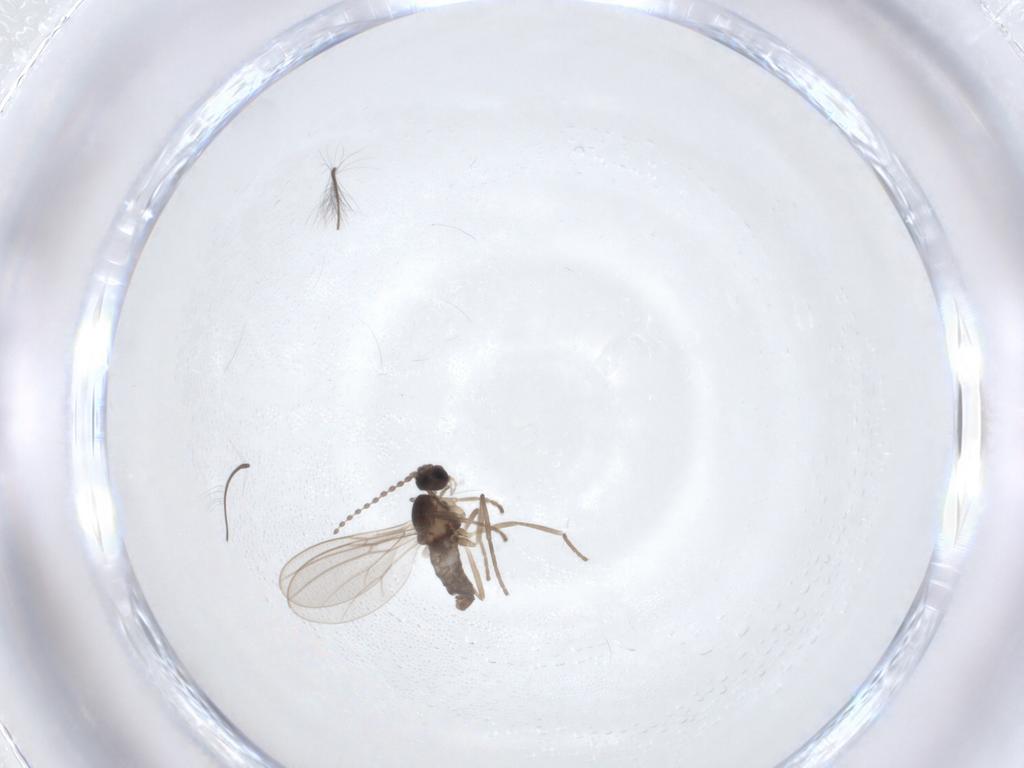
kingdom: Animalia
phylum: Arthropoda
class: Insecta
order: Diptera
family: Cecidomyiidae
